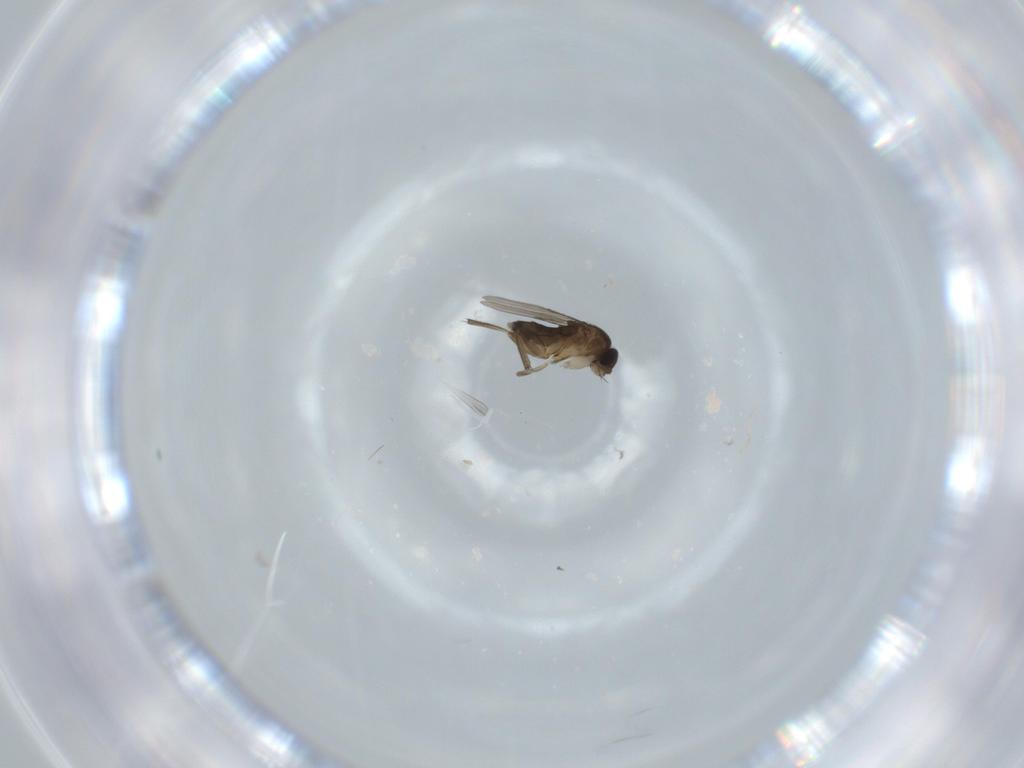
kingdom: Animalia
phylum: Arthropoda
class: Insecta
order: Diptera
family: Phoridae
